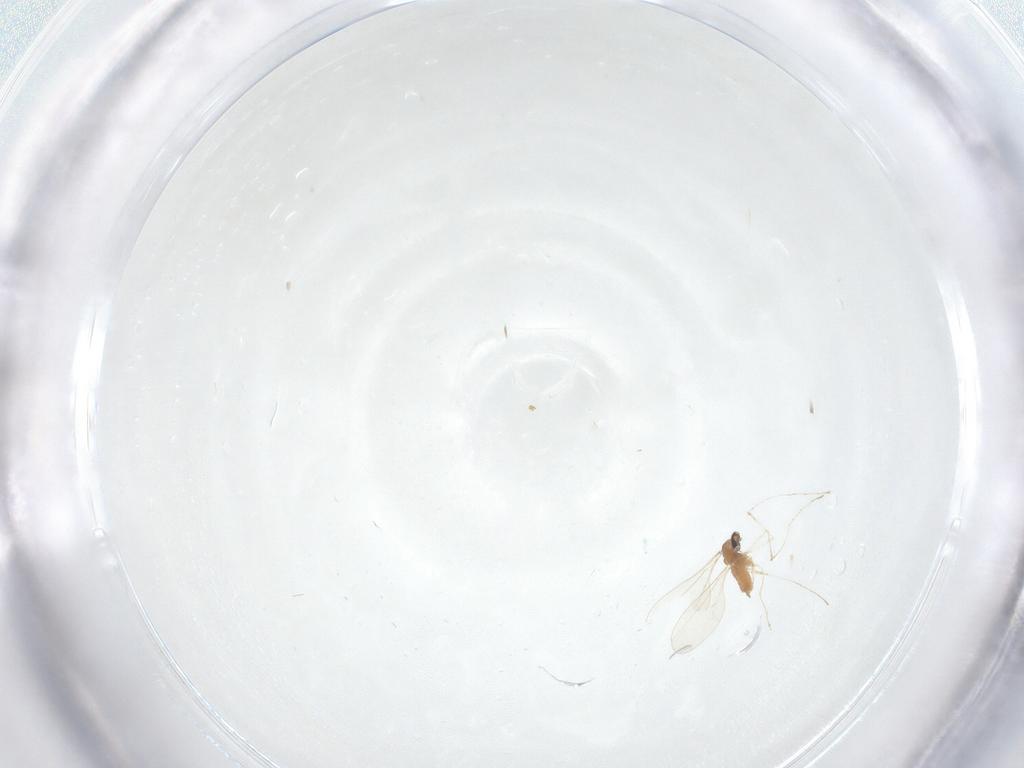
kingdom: Animalia
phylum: Arthropoda
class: Insecta
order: Diptera
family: Cecidomyiidae
